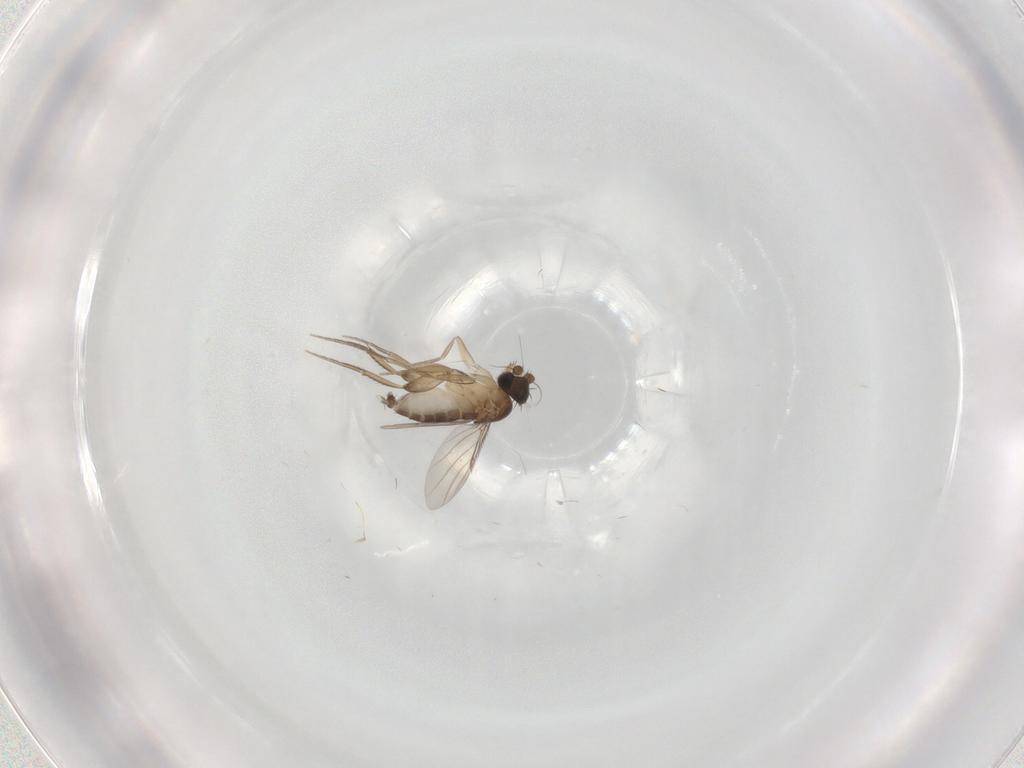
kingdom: Animalia
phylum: Arthropoda
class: Insecta
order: Diptera
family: Phoridae
